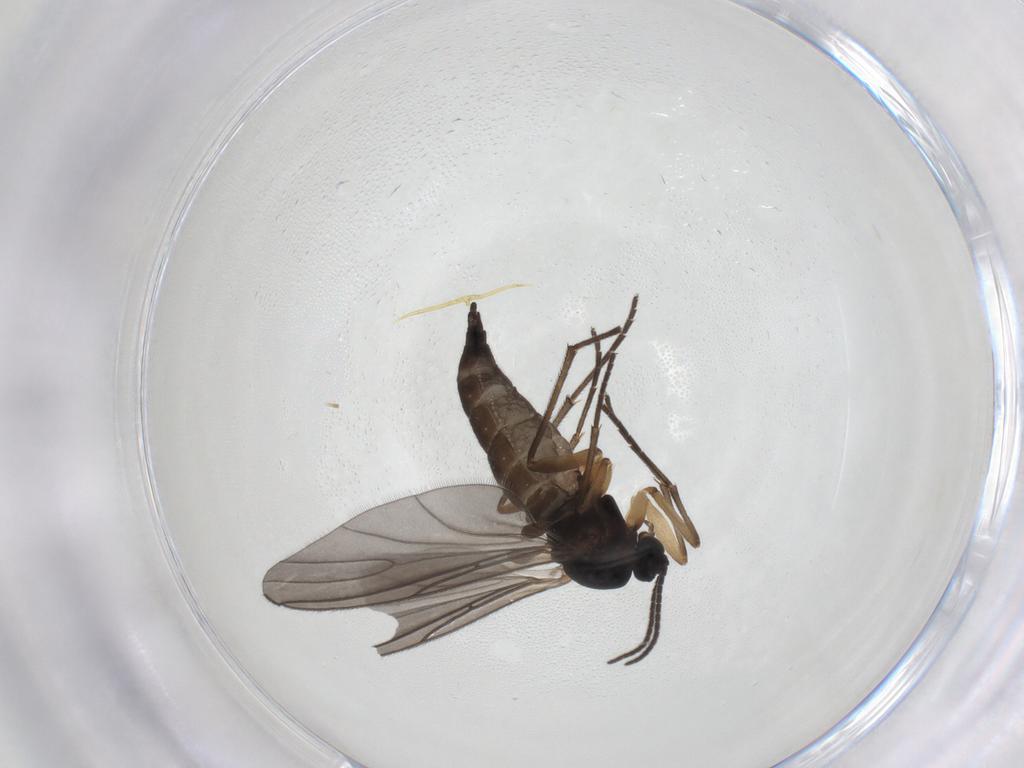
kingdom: Animalia
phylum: Arthropoda
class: Insecta
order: Diptera
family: Sciaridae
